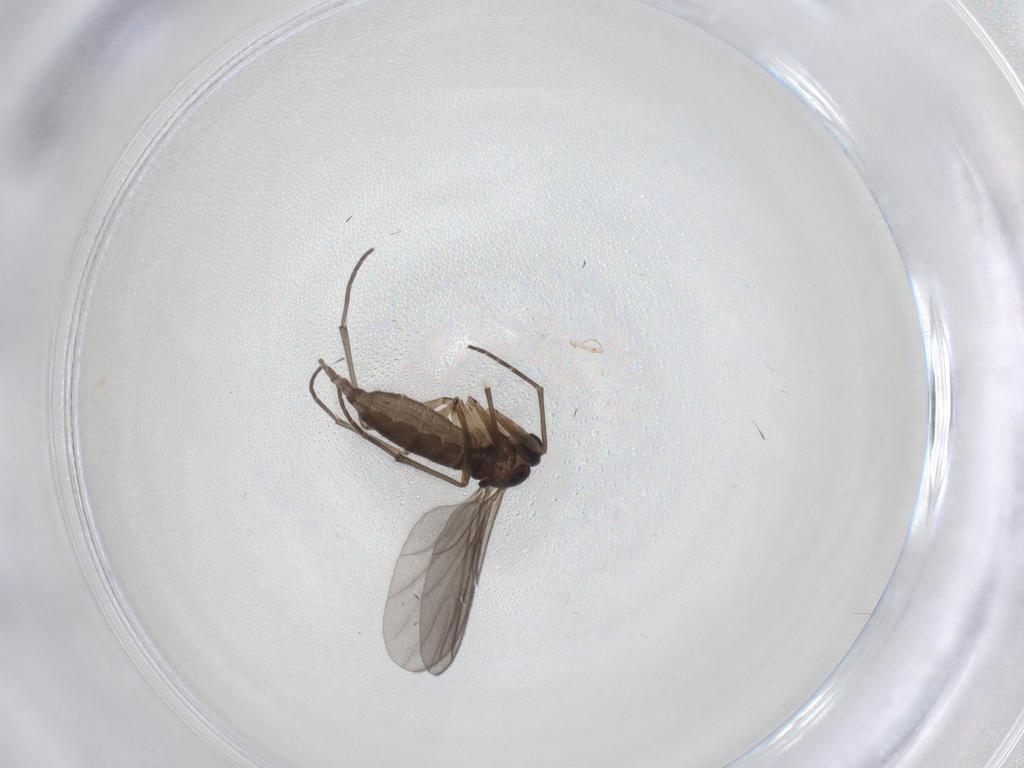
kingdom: Animalia
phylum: Arthropoda
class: Insecta
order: Diptera
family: Sciaridae
